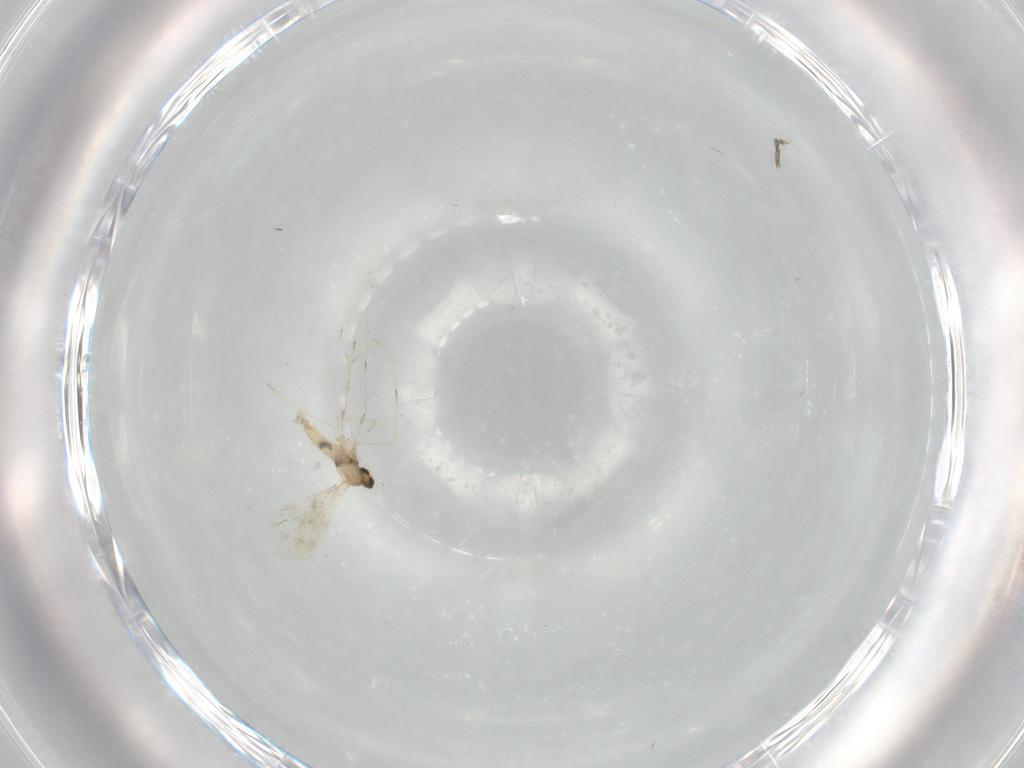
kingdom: Animalia
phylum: Arthropoda
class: Insecta
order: Diptera
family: Cecidomyiidae
